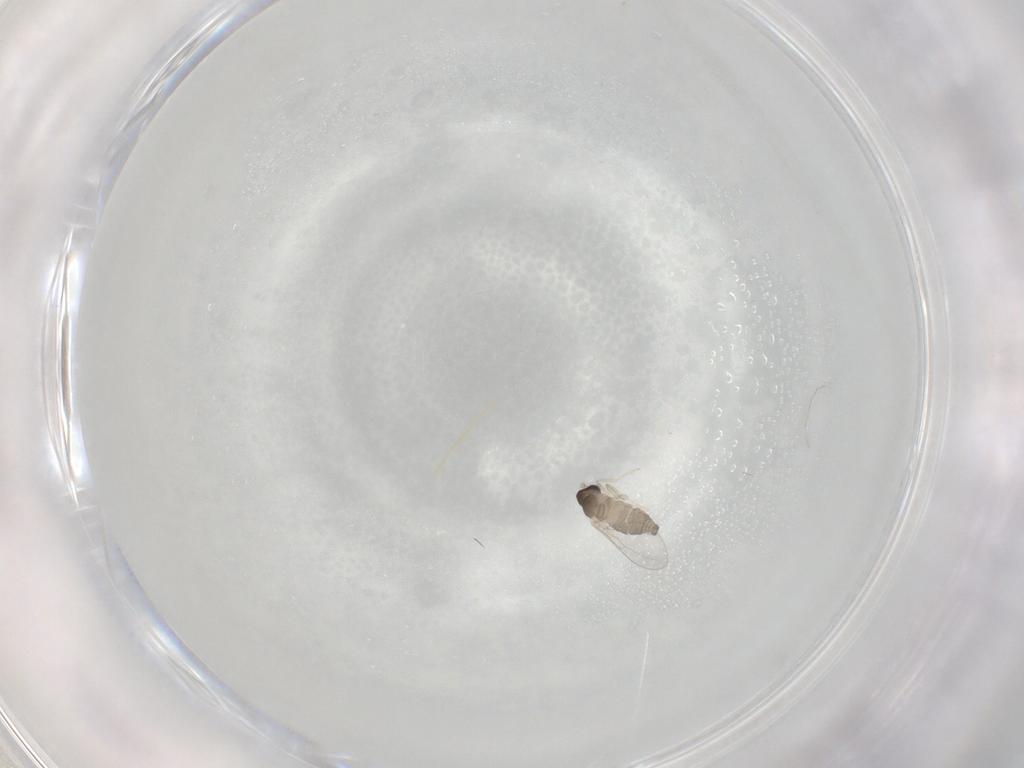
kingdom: Animalia
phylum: Arthropoda
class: Insecta
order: Diptera
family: Cecidomyiidae
